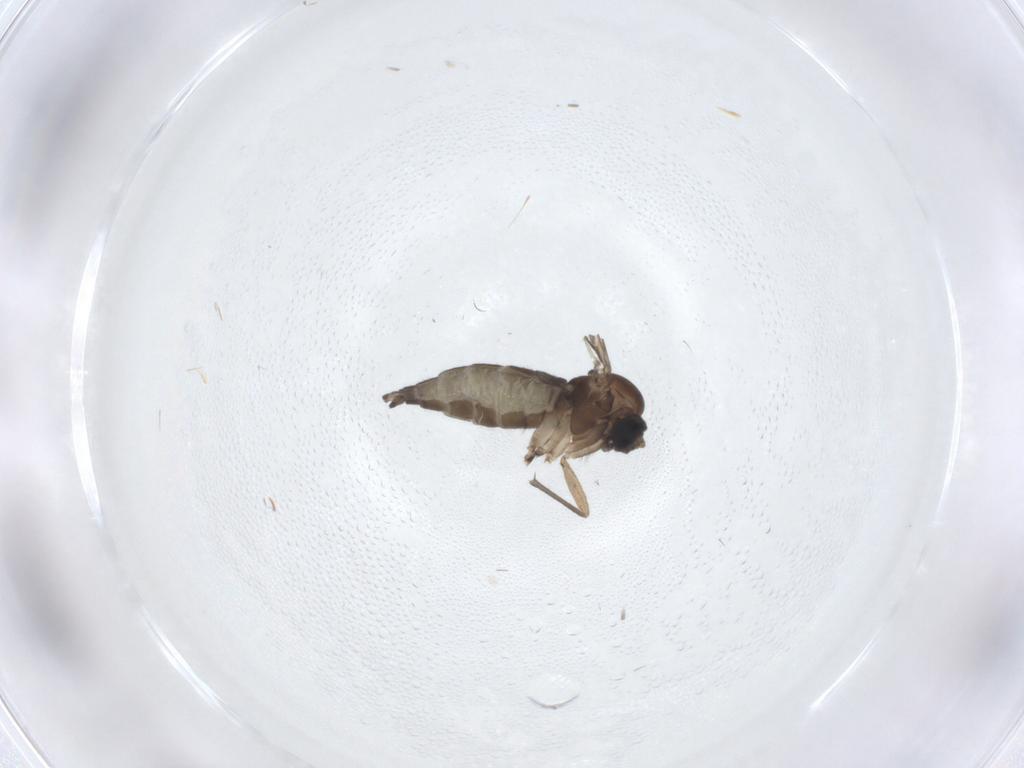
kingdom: Animalia
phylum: Arthropoda
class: Insecta
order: Diptera
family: Sciaridae
